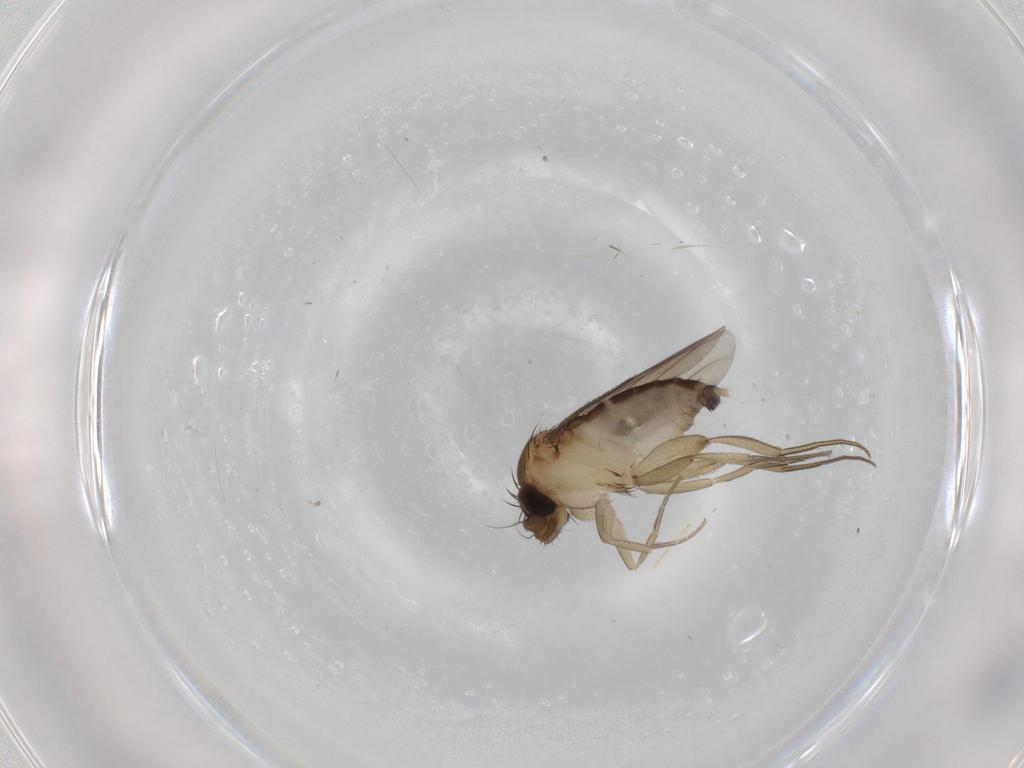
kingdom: Animalia
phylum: Arthropoda
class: Insecta
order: Diptera
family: Phoridae
